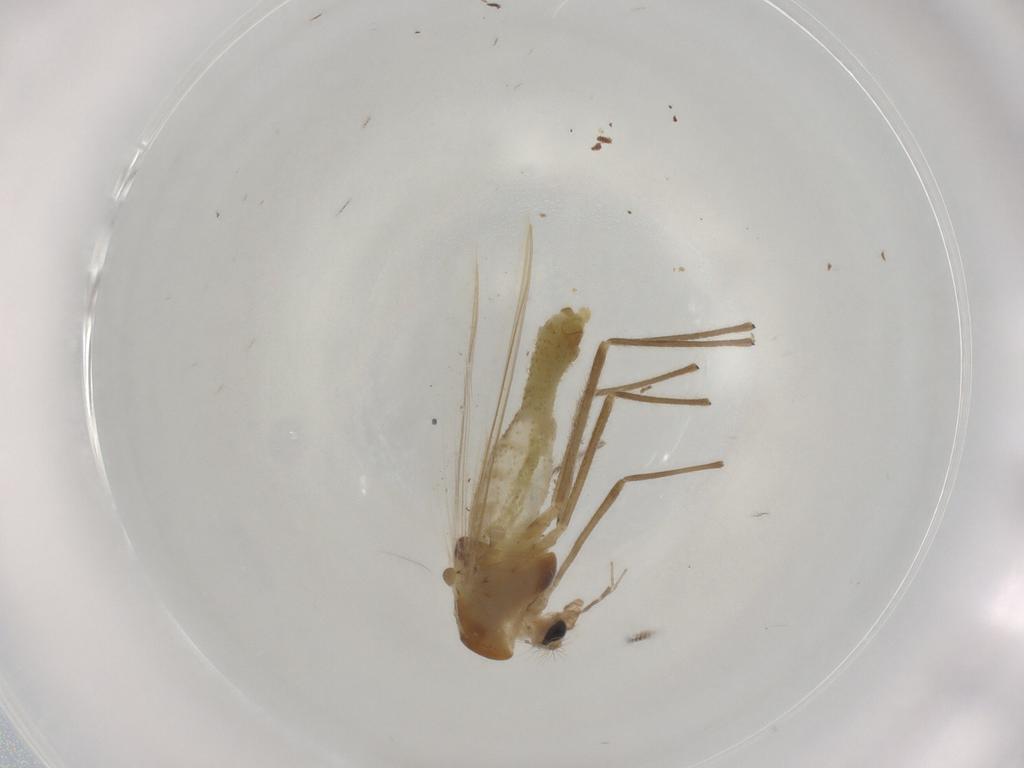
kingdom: Animalia
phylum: Arthropoda
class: Insecta
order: Diptera
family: Chironomidae
